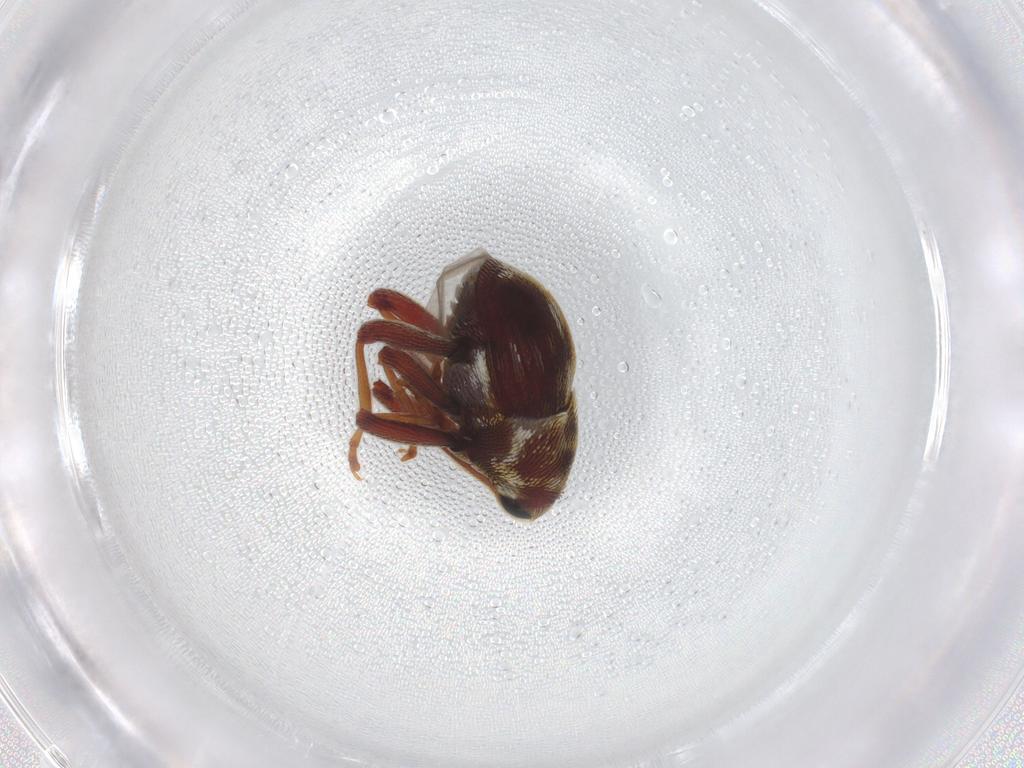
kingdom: Animalia
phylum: Arthropoda
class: Insecta
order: Coleoptera
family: Curculionidae
